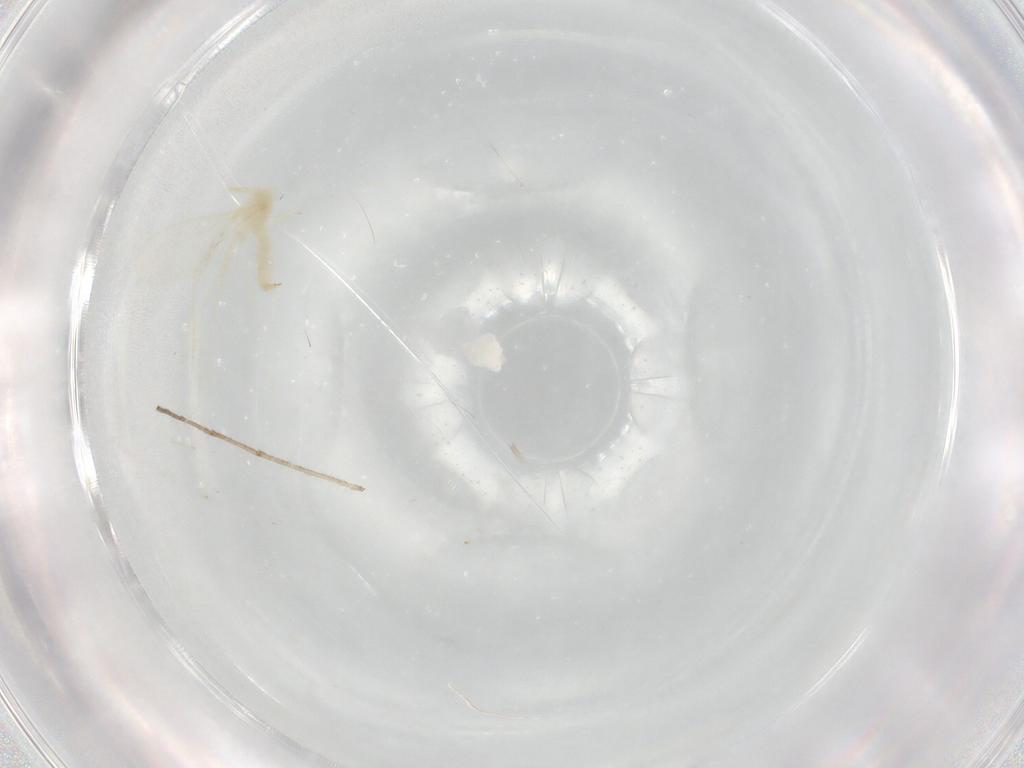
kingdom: Animalia
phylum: Arthropoda
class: Insecta
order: Diptera
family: Cecidomyiidae
